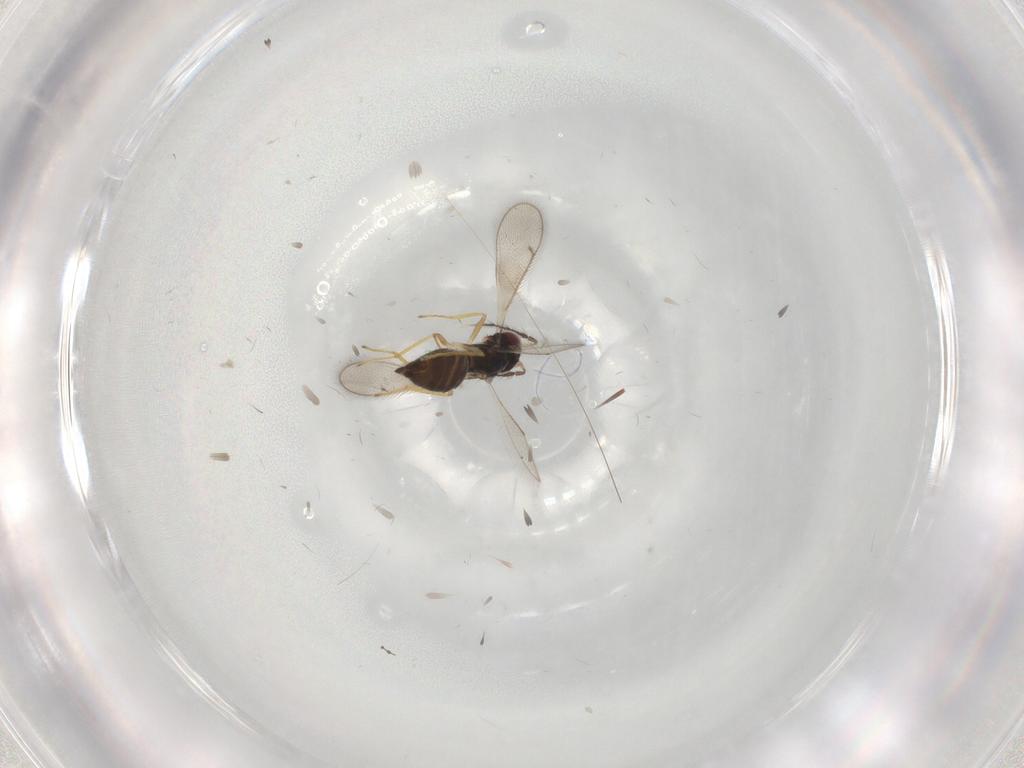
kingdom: Animalia
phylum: Arthropoda
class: Insecta
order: Hymenoptera
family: Eulophidae
